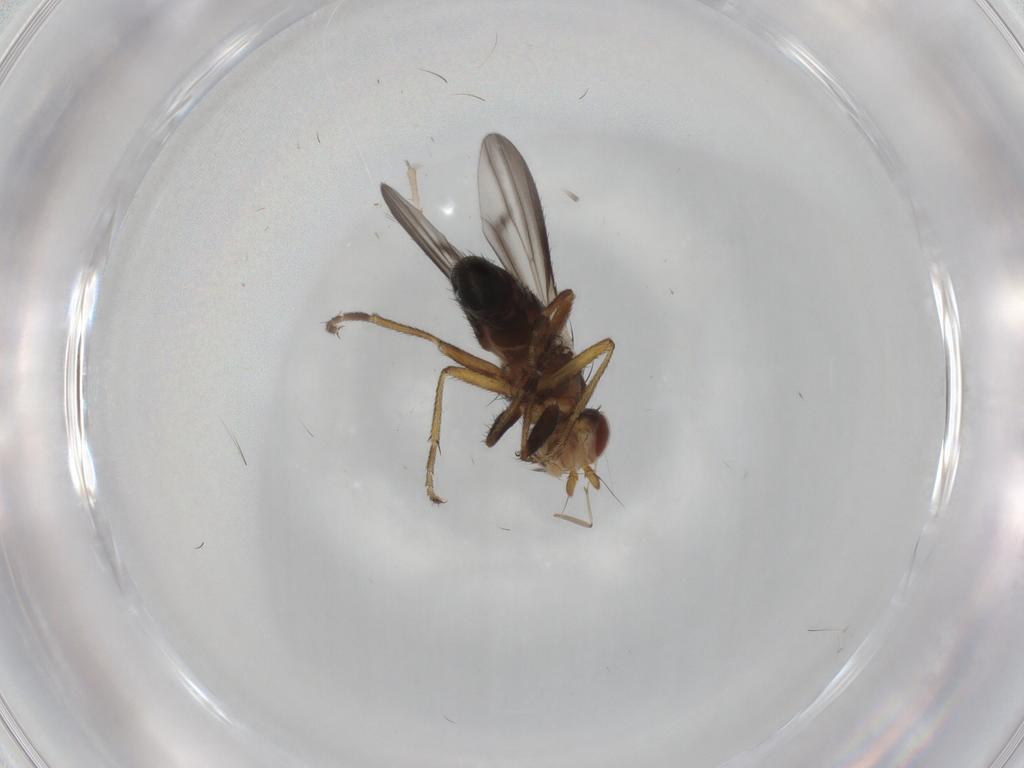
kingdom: Animalia
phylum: Arthropoda
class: Insecta
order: Diptera
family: Heleomyzidae
